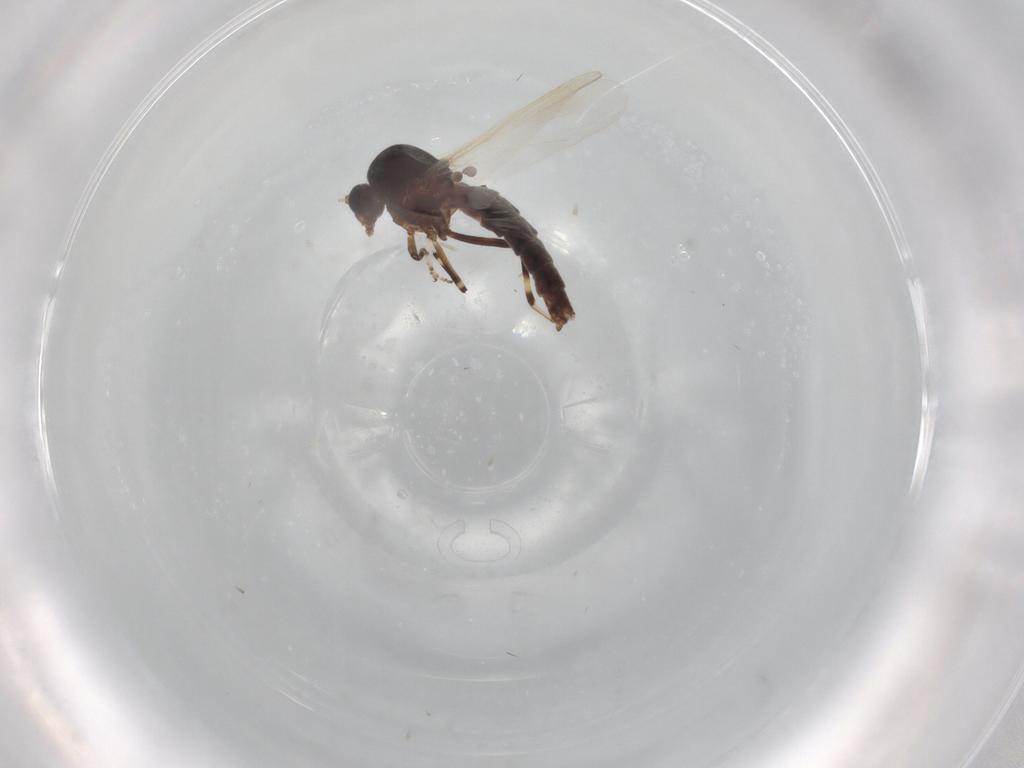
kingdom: Animalia
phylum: Arthropoda
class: Insecta
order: Diptera
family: Ceratopogonidae
